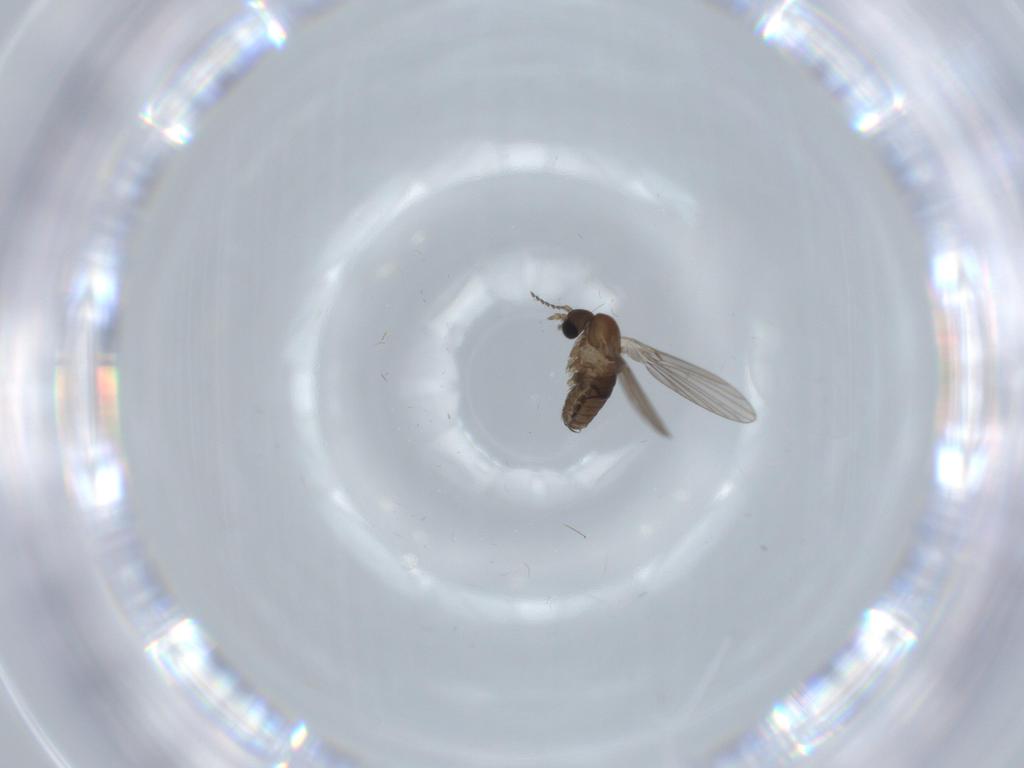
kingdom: Animalia
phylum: Arthropoda
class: Insecta
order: Diptera
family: Psychodidae
